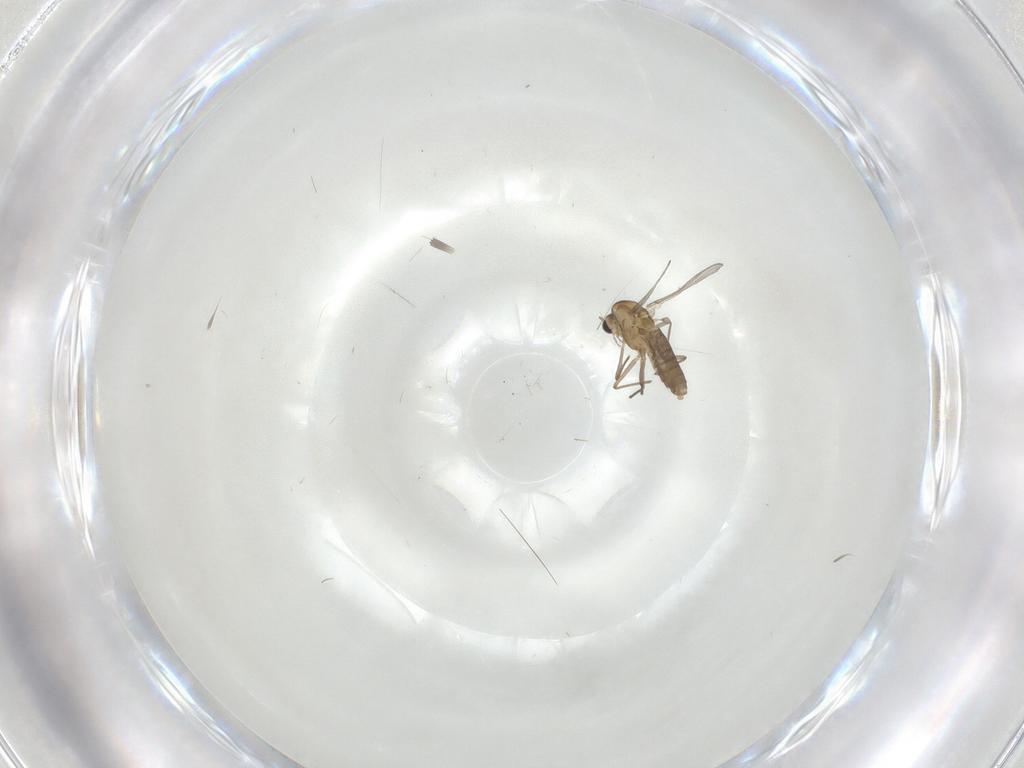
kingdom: Animalia
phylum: Arthropoda
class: Insecta
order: Diptera
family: Chironomidae
